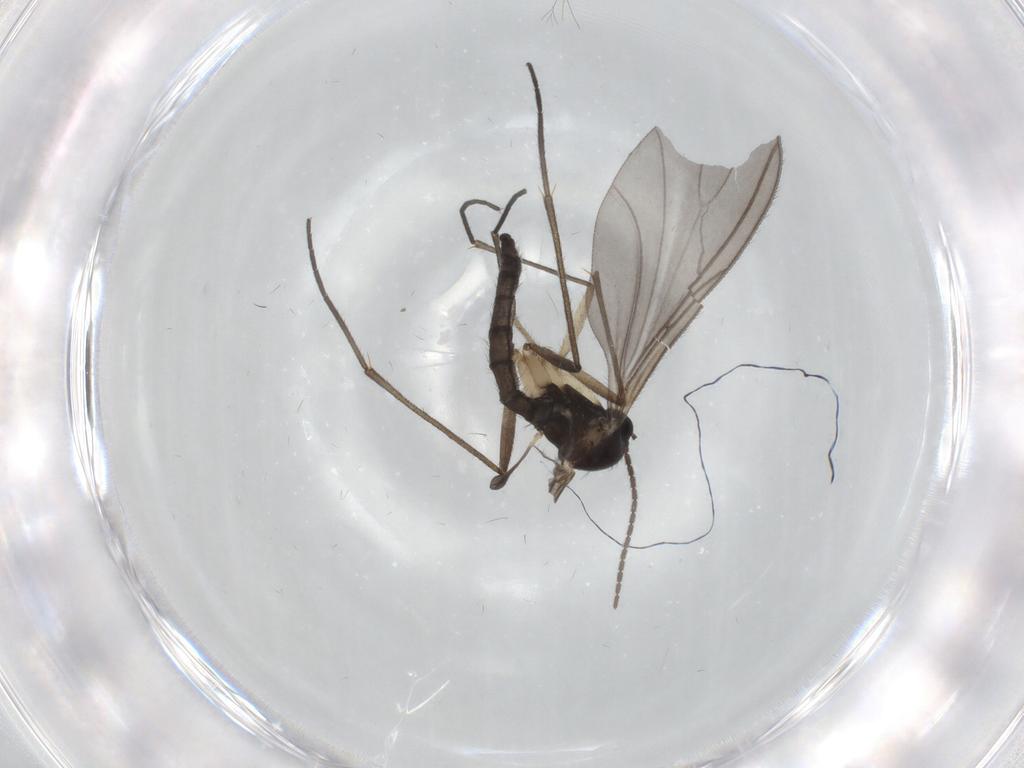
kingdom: Animalia
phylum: Arthropoda
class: Insecta
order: Diptera
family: Sciaridae
